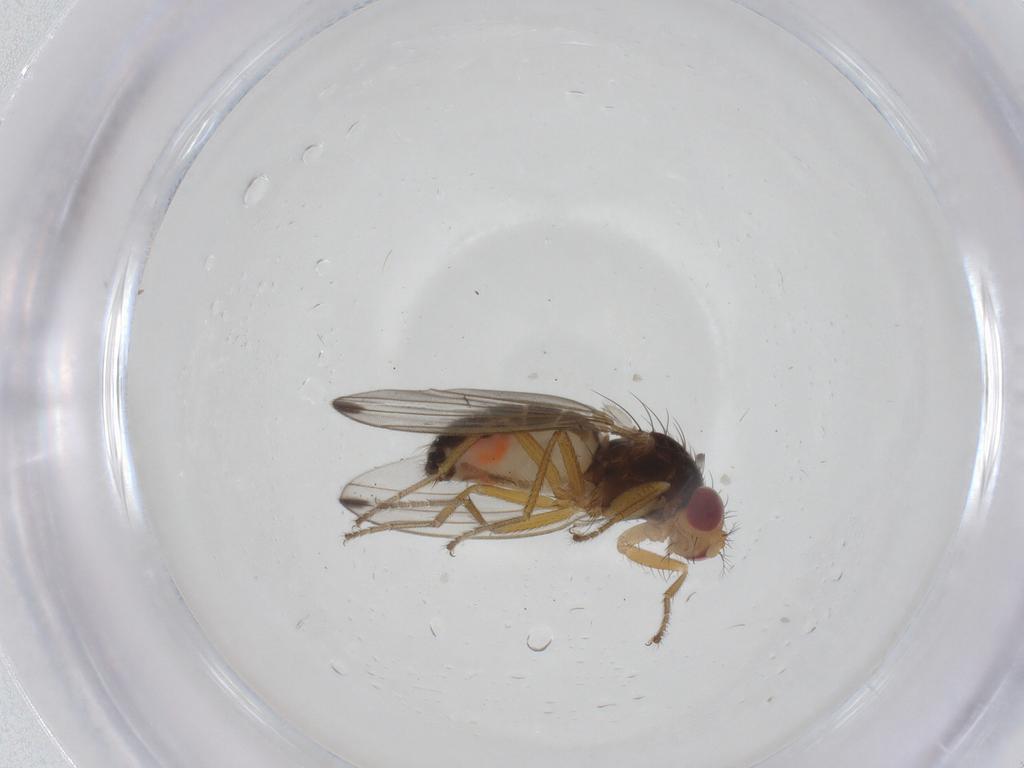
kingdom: Animalia
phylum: Arthropoda
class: Insecta
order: Diptera
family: Drosophilidae
